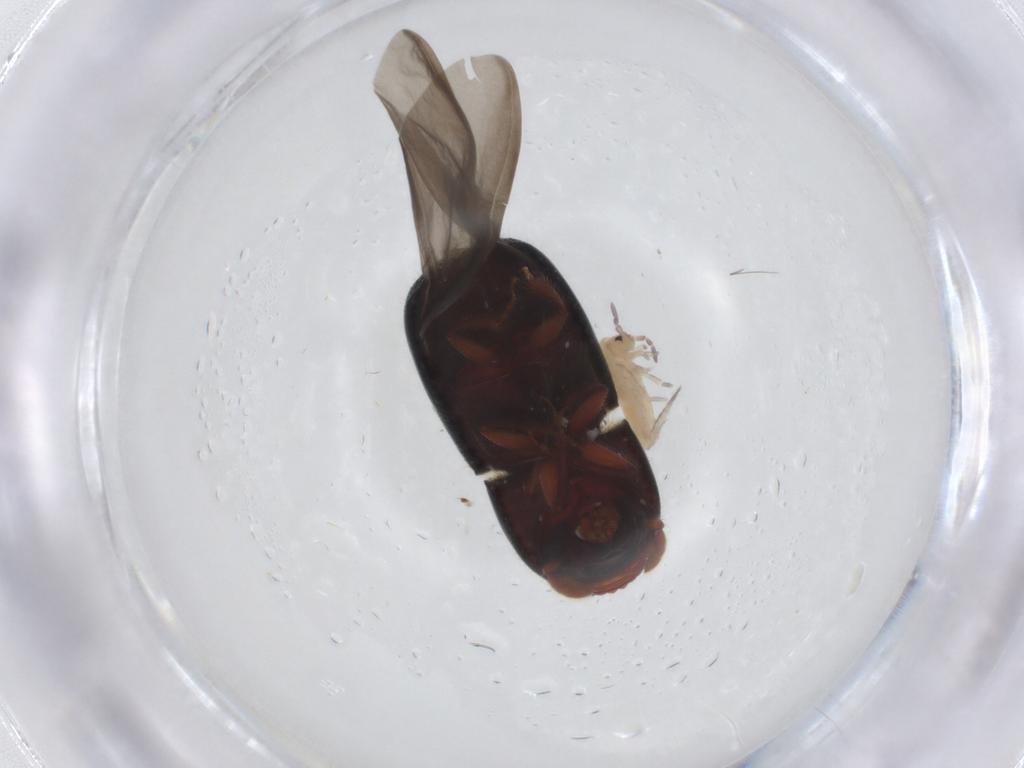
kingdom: Animalia
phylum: Arthropoda
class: Insecta
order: Coleoptera
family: Curculionidae
